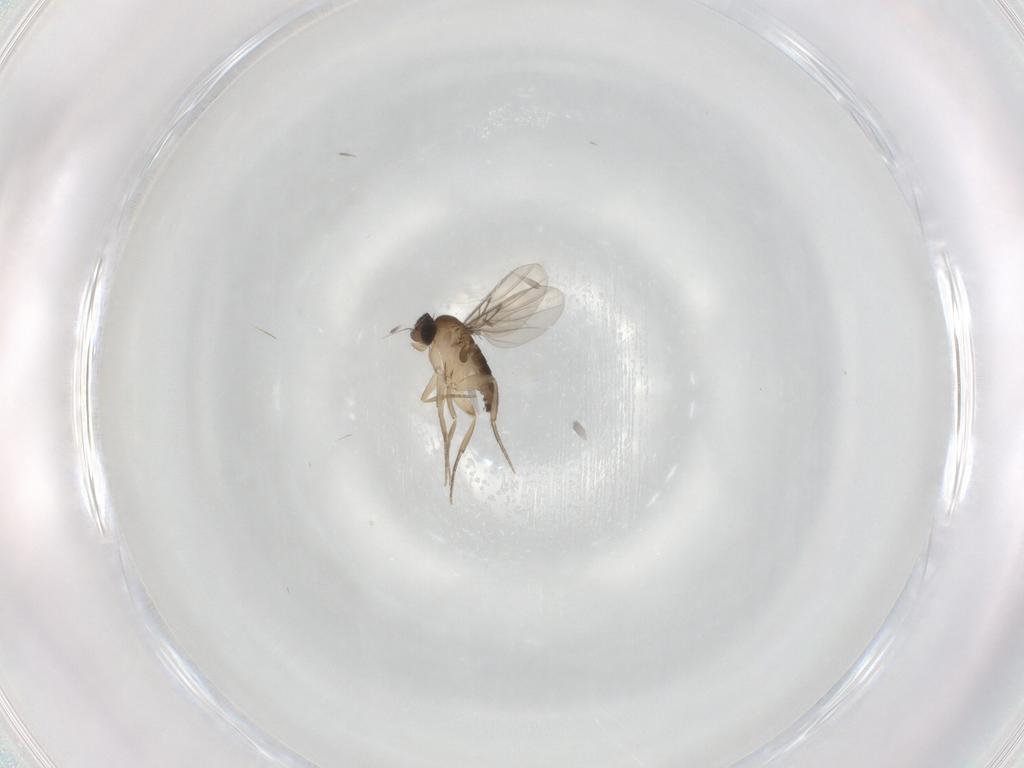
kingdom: Animalia
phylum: Arthropoda
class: Insecta
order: Diptera
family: Phoridae
